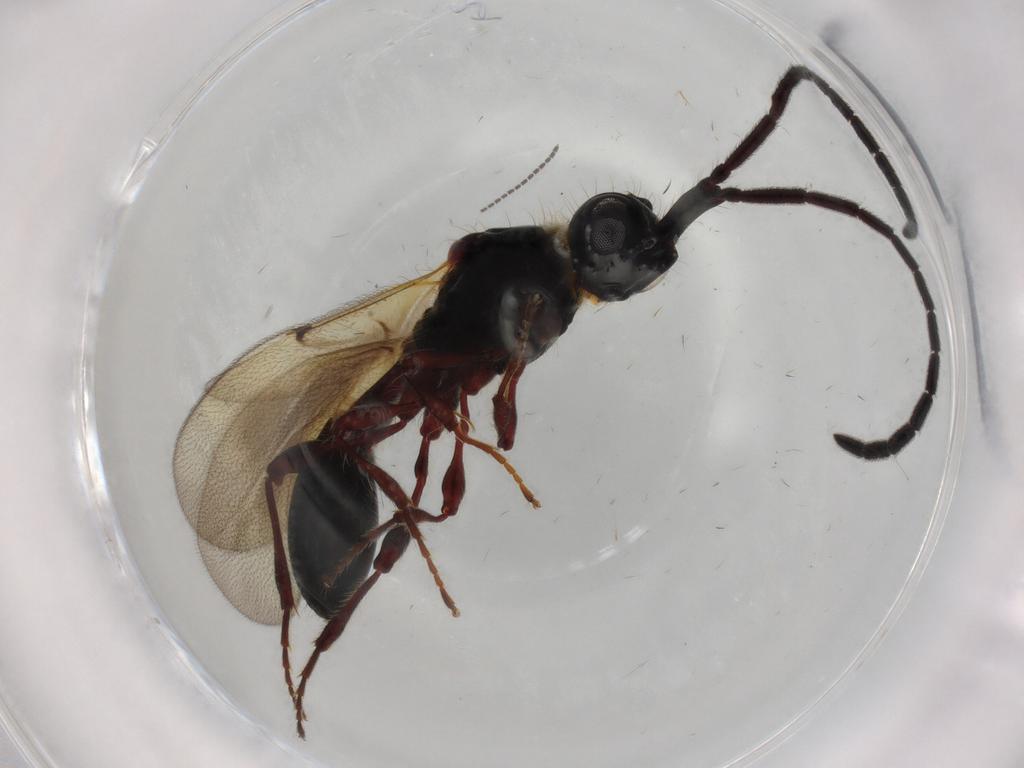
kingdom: Animalia
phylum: Arthropoda
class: Insecta
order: Hymenoptera
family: Diapriidae
